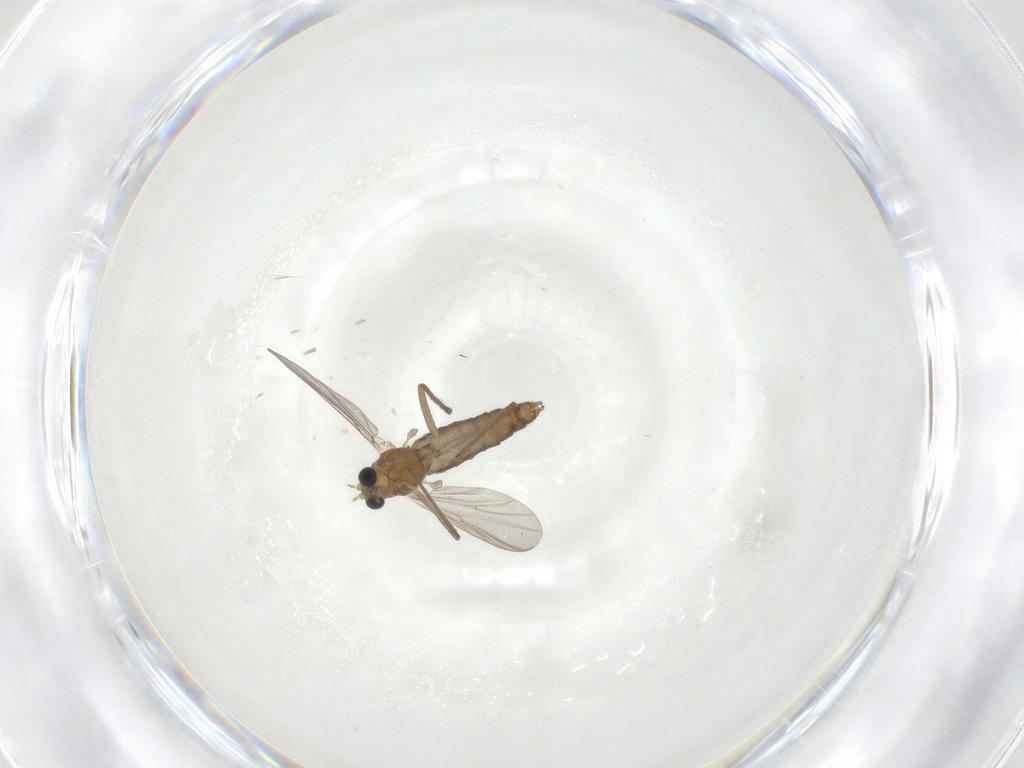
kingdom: Animalia
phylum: Arthropoda
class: Insecta
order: Diptera
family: Chironomidae
